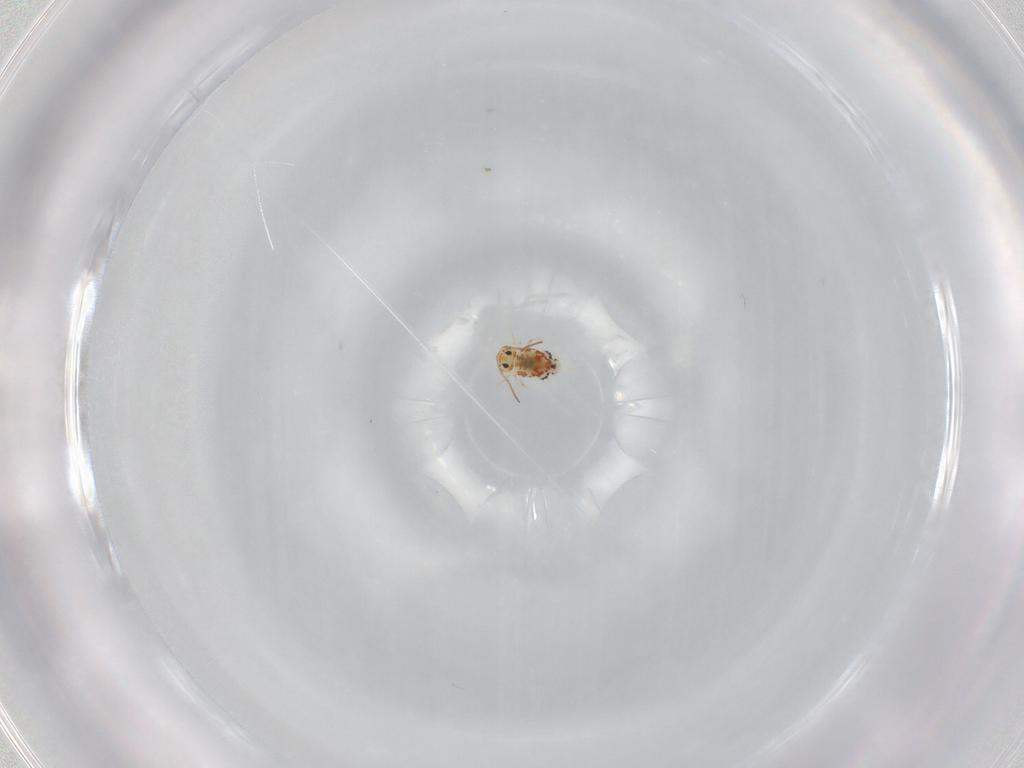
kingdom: Animalia
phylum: Arthropoda
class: Collembola
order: Symphypleona
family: Bourletiellidae
